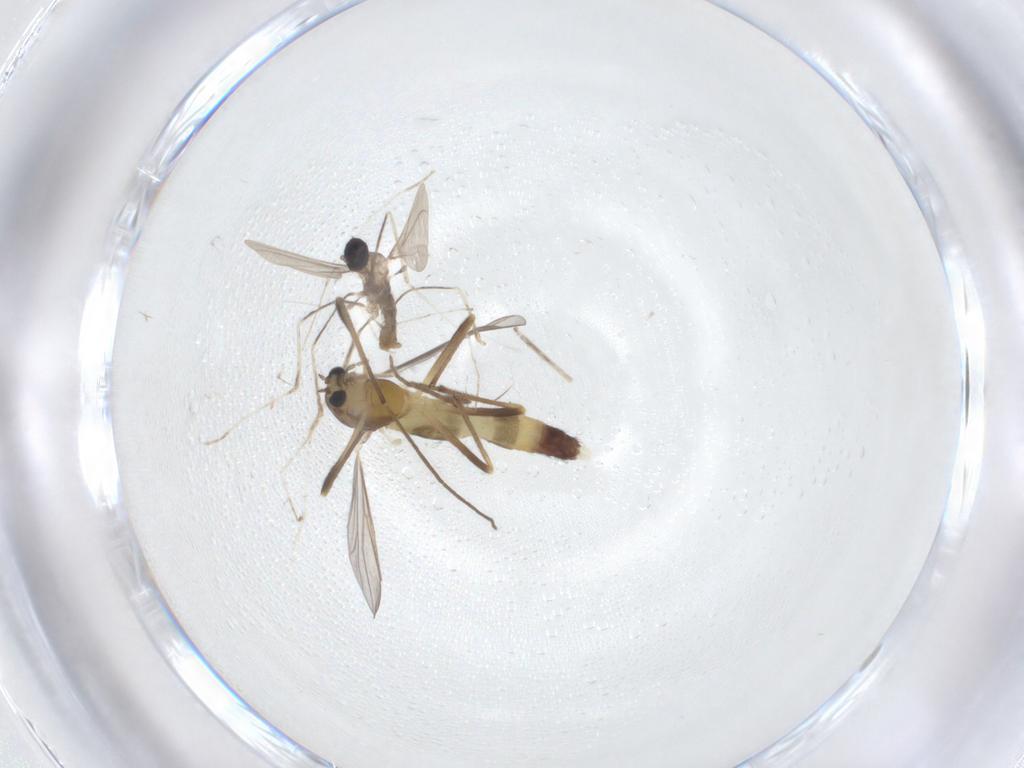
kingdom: Animalia
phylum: Arthropoda
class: Insecta
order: Diptera
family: Chironomidae
